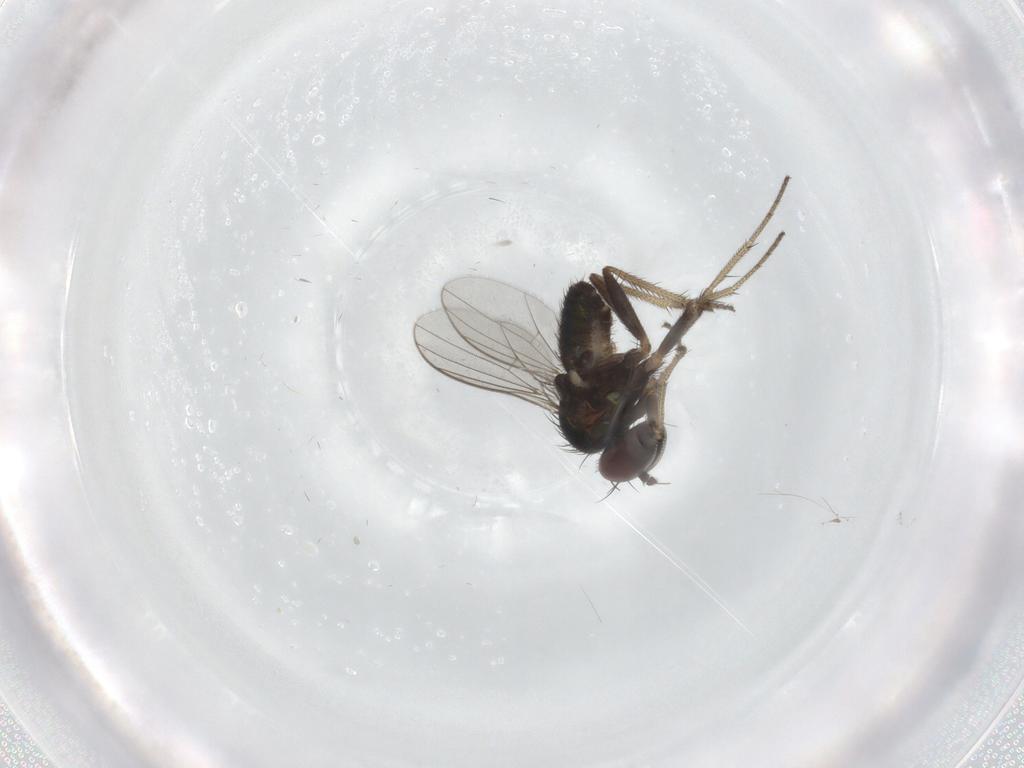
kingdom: Animalia
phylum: Arthropoda
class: Insecta
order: Diptera
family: Dolichopodidae
